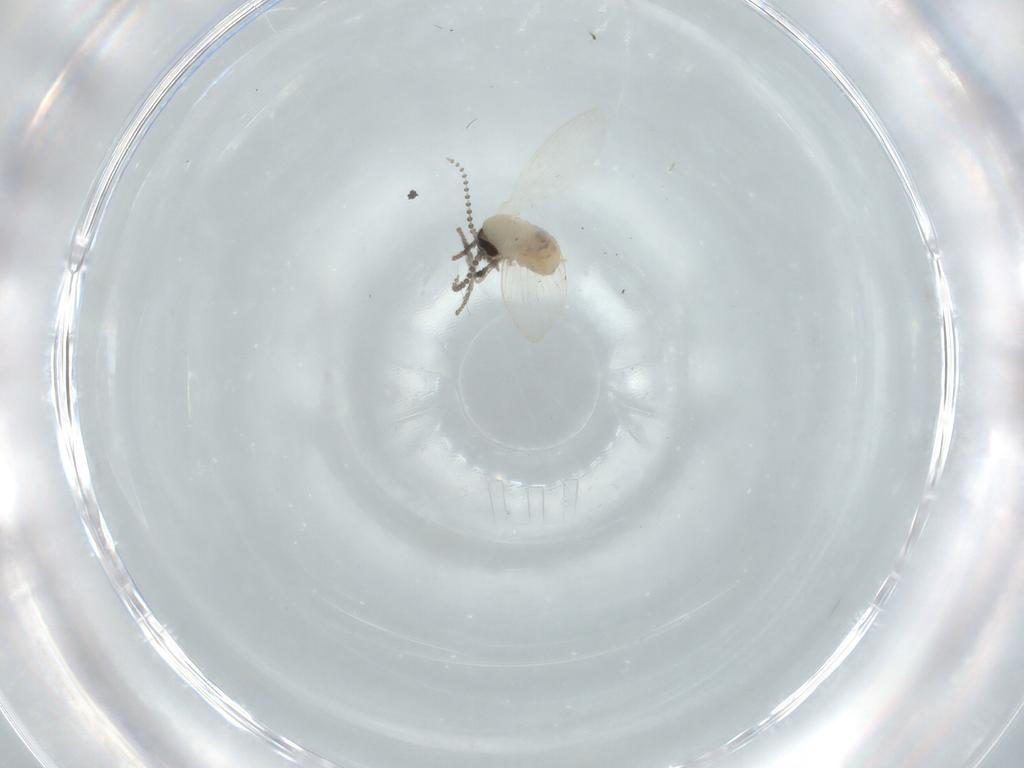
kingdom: Animalia
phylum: Arthropoda
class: Insecta
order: Diptera
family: Psychodidae
